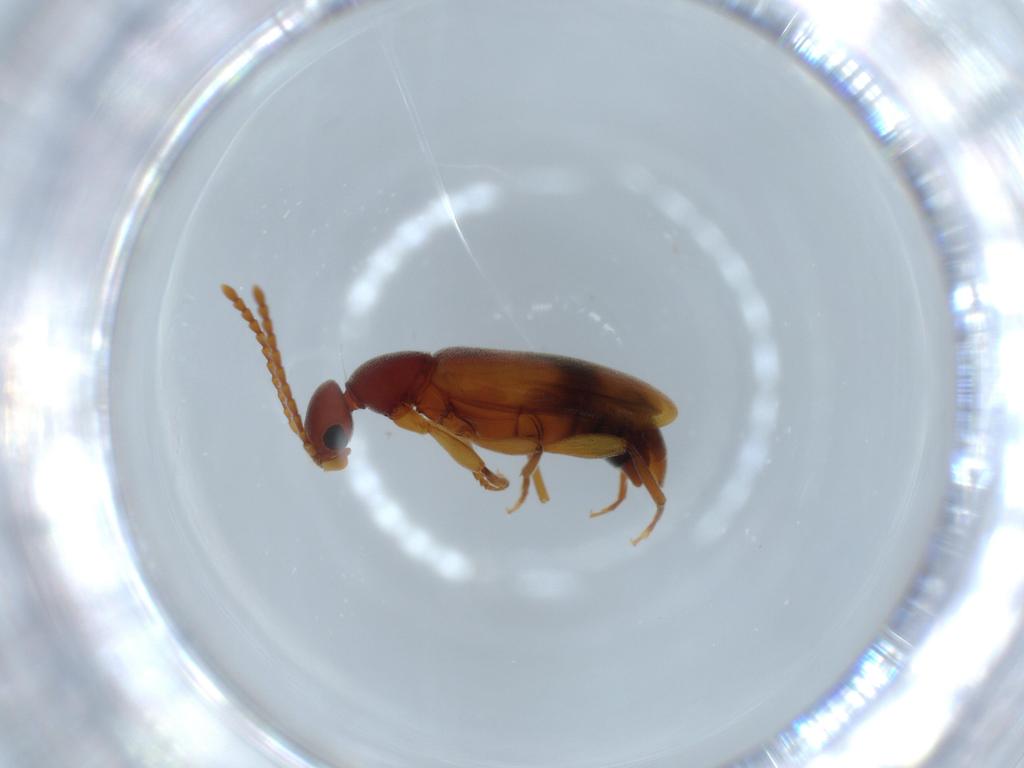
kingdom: Animalia
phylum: Arthropoda
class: Insecta
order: Coleoptera
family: Anthicidae
